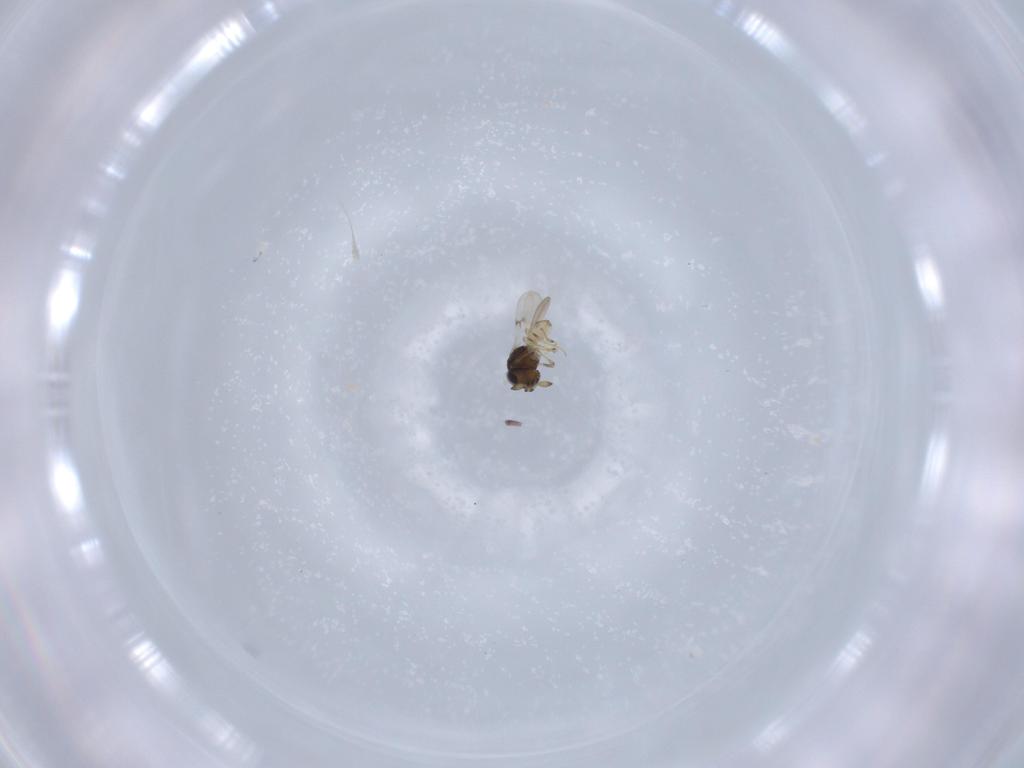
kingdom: Animalia
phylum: Arthropoda
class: Insecta
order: Hymenoptera
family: Scelionidae
